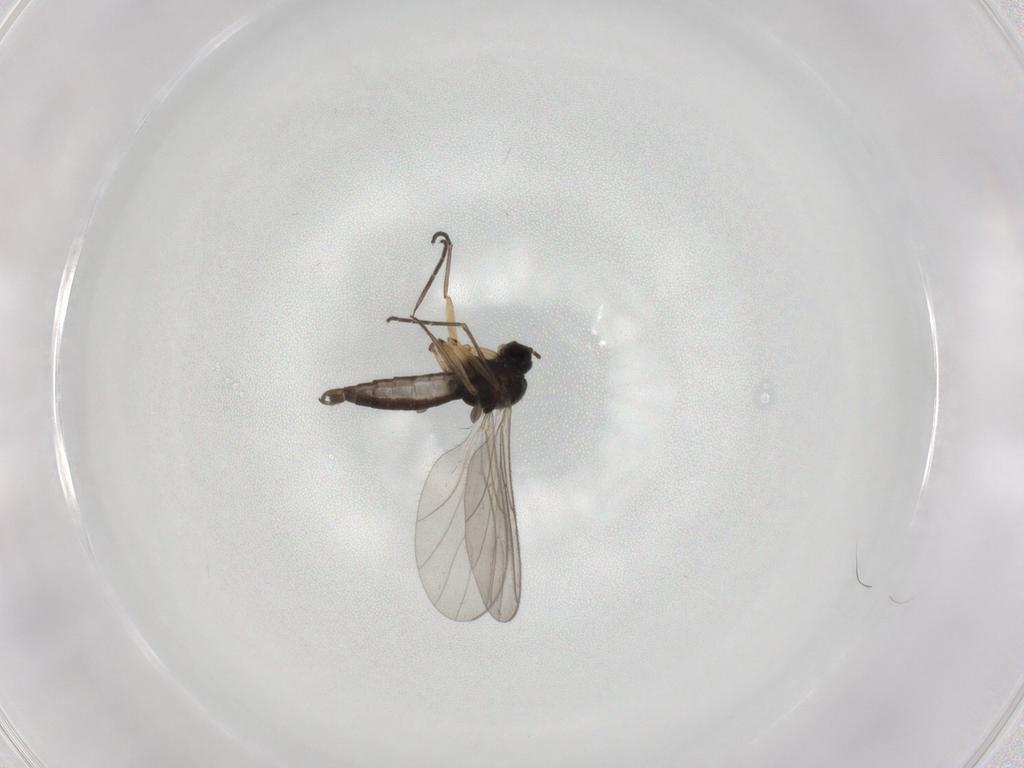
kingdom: Animalia
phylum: Arthropoda
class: Insecta
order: Diptera
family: Sciaridae
